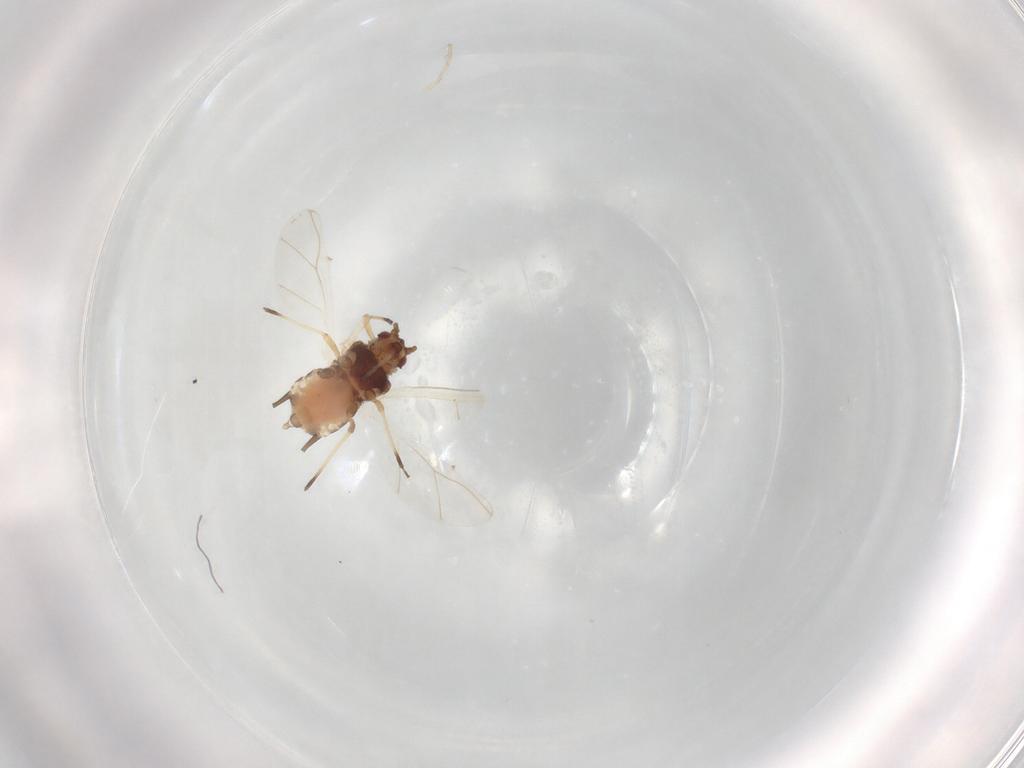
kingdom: Animalia
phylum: Arthropoda
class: Insecta
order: Hemiptera
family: Aphididae
